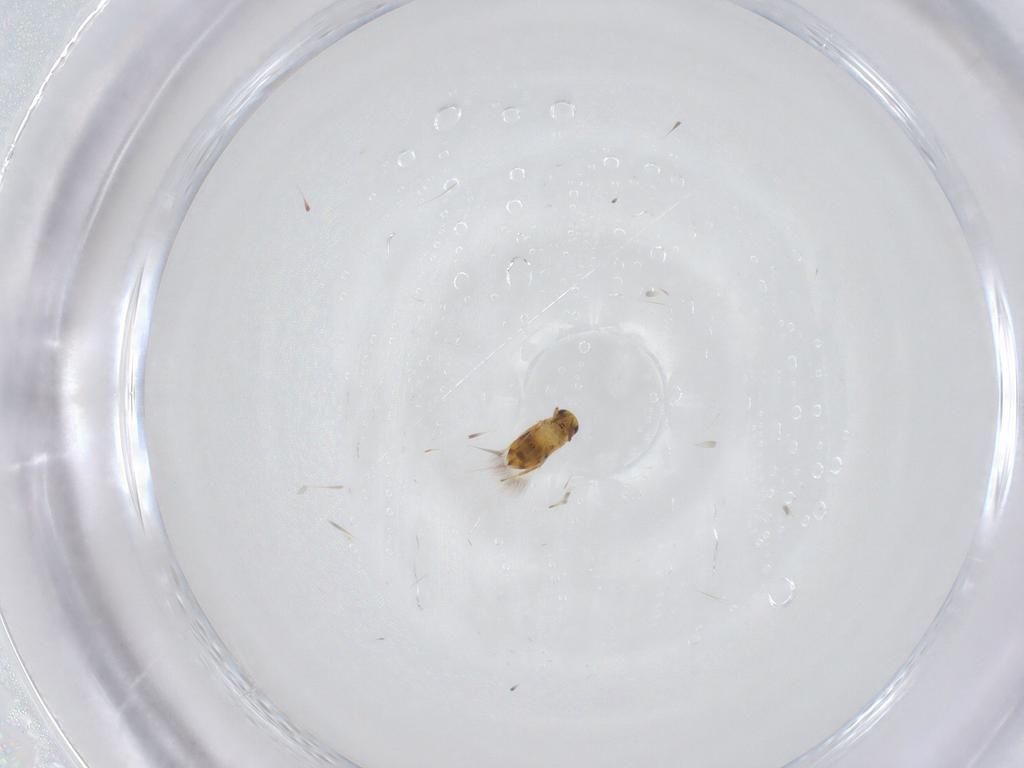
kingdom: Animalia
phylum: Arthropoda
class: Insecta
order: Hymenoptera
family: Signiphoridae
